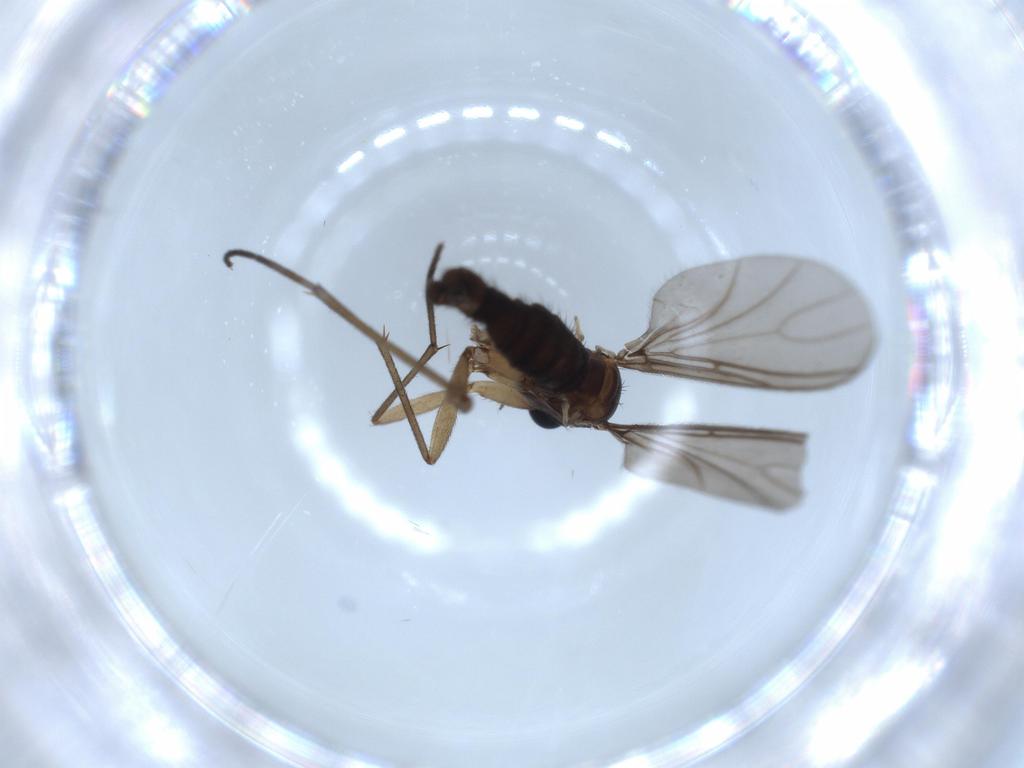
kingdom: Animalia
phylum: Arthropoda
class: Insecta
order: Diptera
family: Sciaridae
